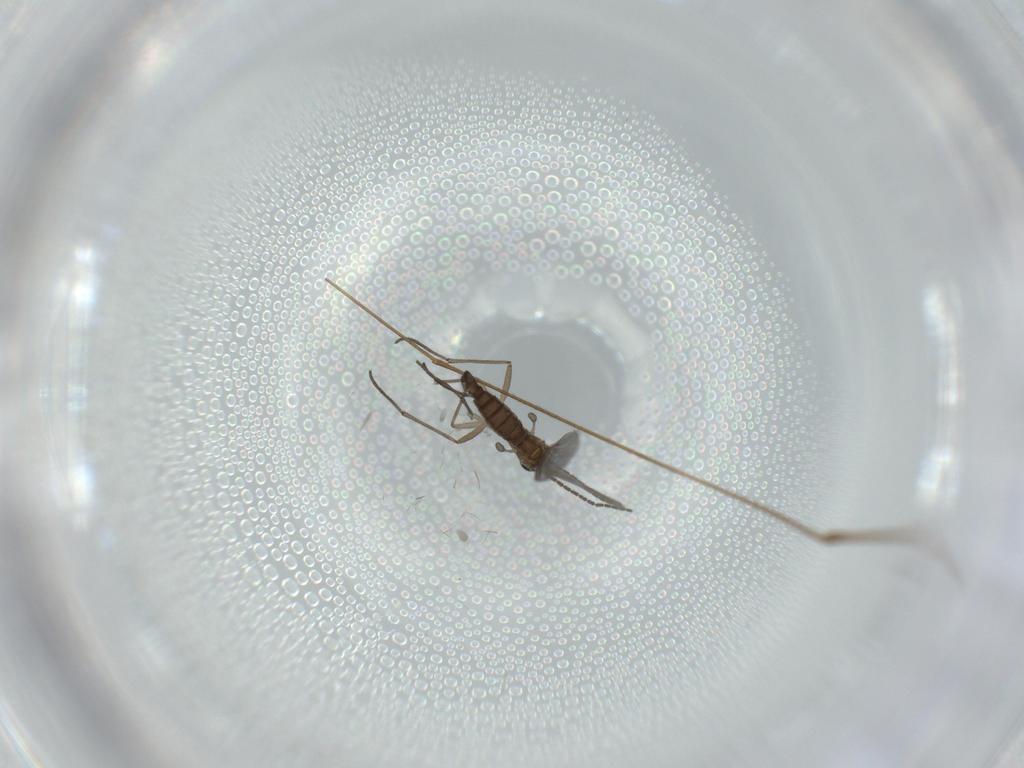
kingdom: Animalia
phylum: Arthropoda
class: Insecta
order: Diptera
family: Limoniidae
